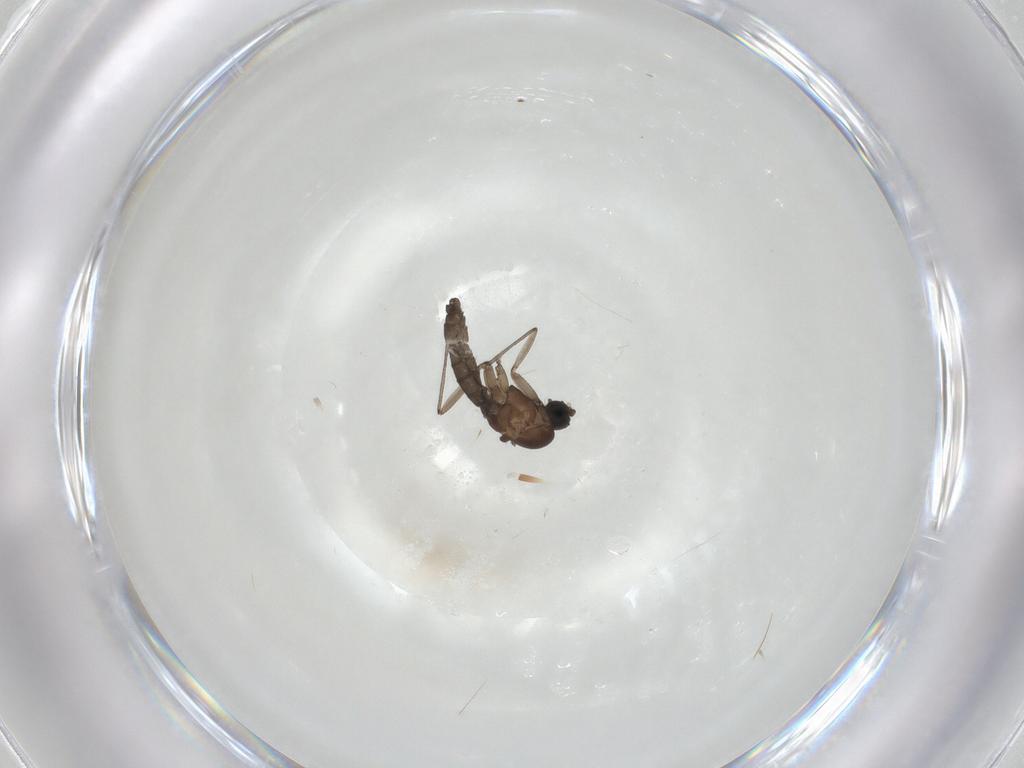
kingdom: Animalia
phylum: Arthropoda
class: Insecta
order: Diptera
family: Sciaridae
